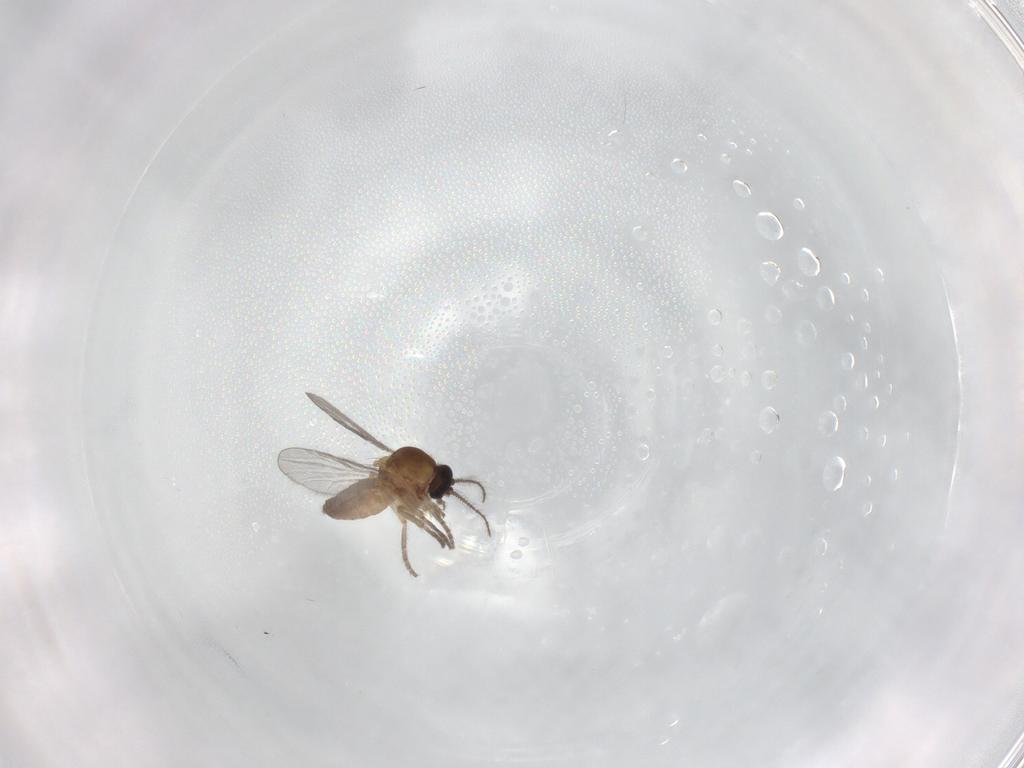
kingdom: Animalia
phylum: Arthropoda
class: Insecta
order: Diptera
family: Ceratopogonidae
